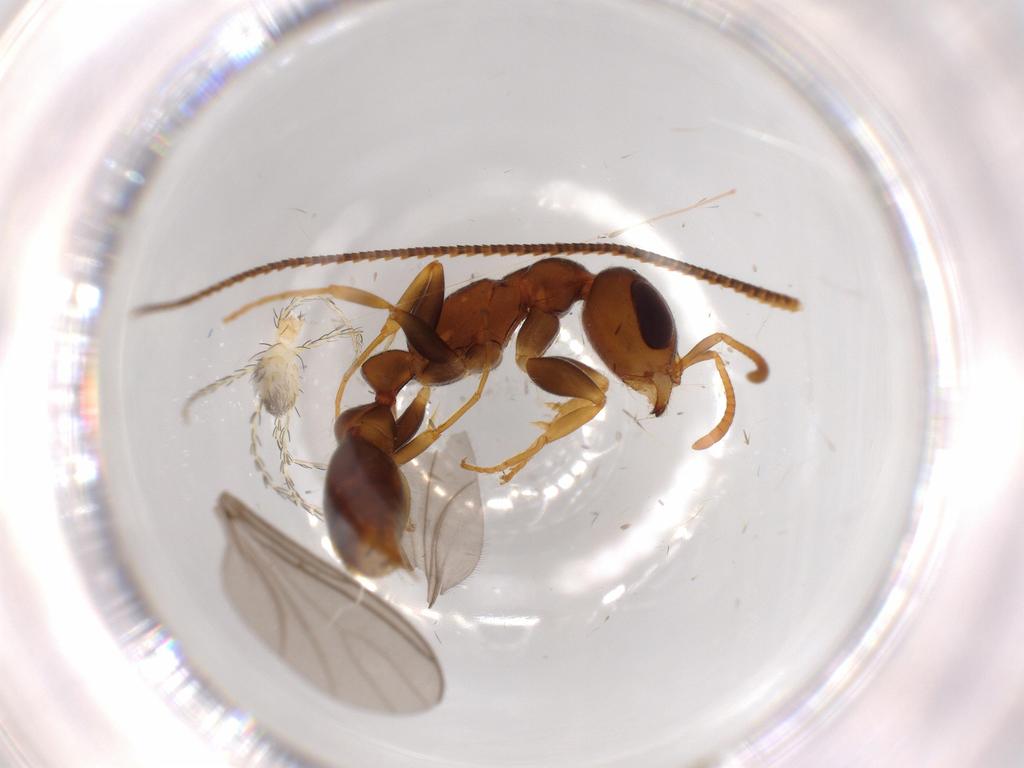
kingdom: Animalia
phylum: Arthropoda
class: Arachnida
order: Trombidiformes
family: Erythraeidae
